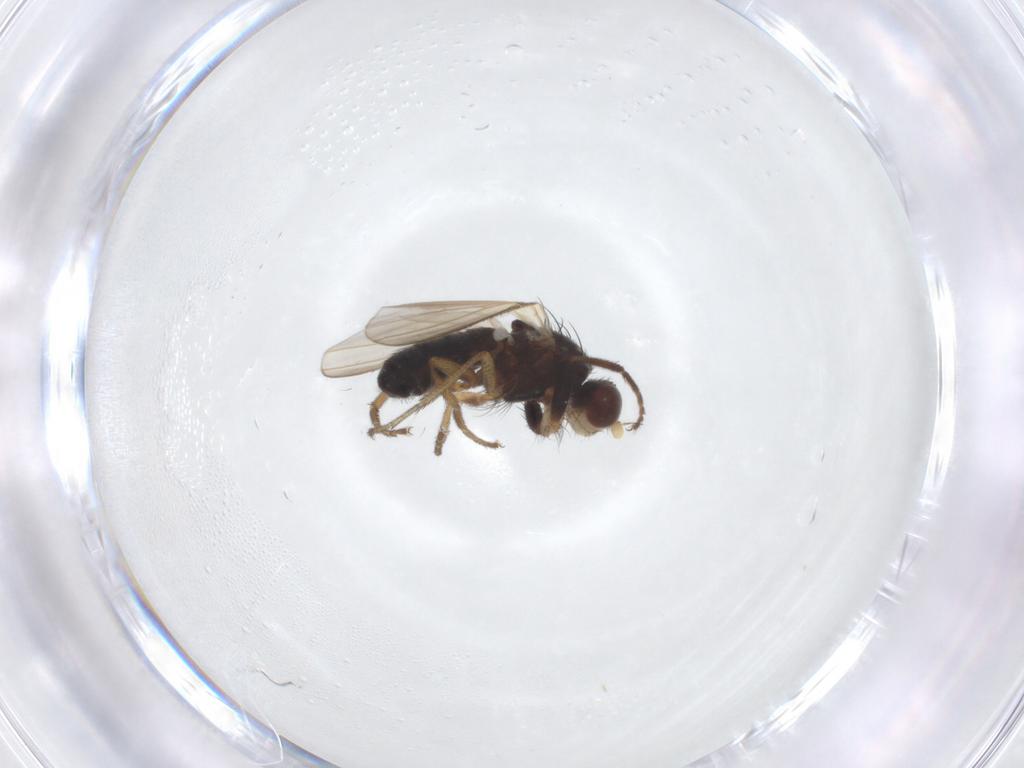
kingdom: Animalia
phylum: Arthropoda
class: Insecta
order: Diptera
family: Heleomyzidae
